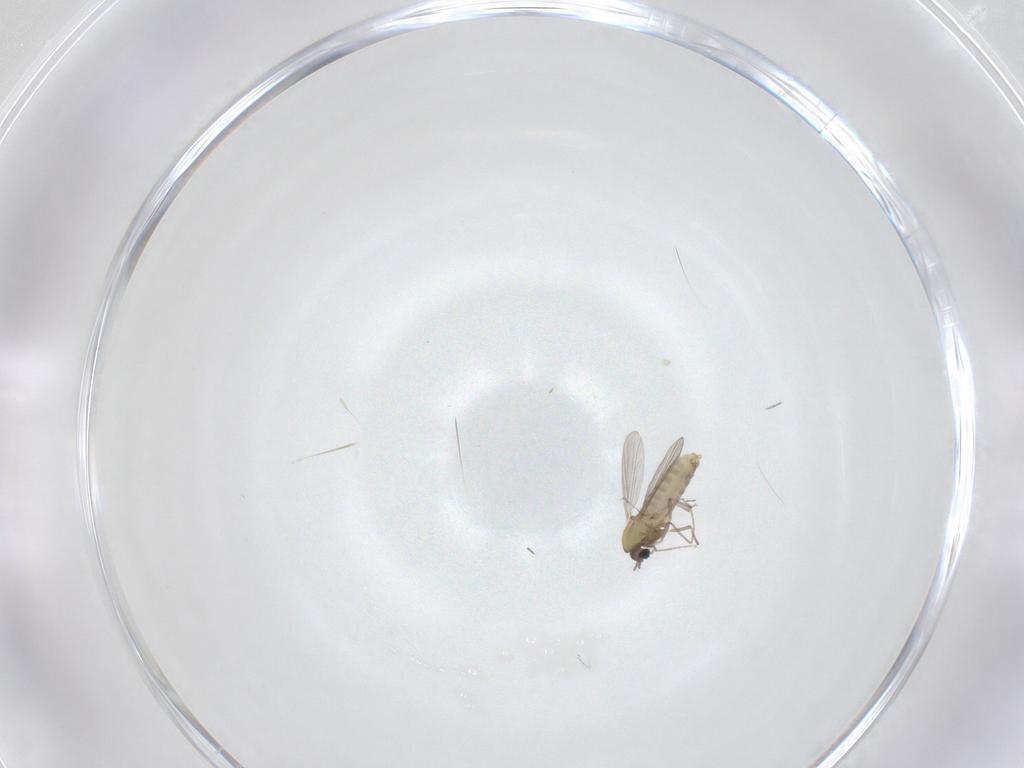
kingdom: Animalia
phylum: Arthropoda
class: Insecta
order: Diptera
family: Chironomidae
